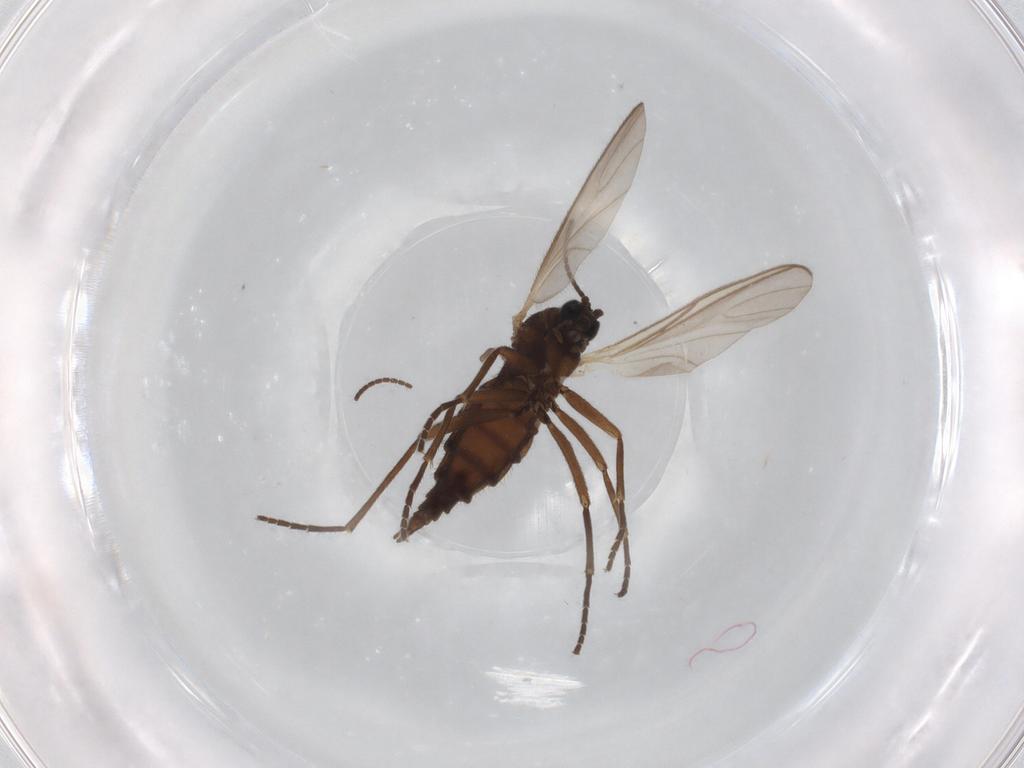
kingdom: Animalia
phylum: Arthropoda
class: Insecta
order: Diptera
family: Sciaridae
